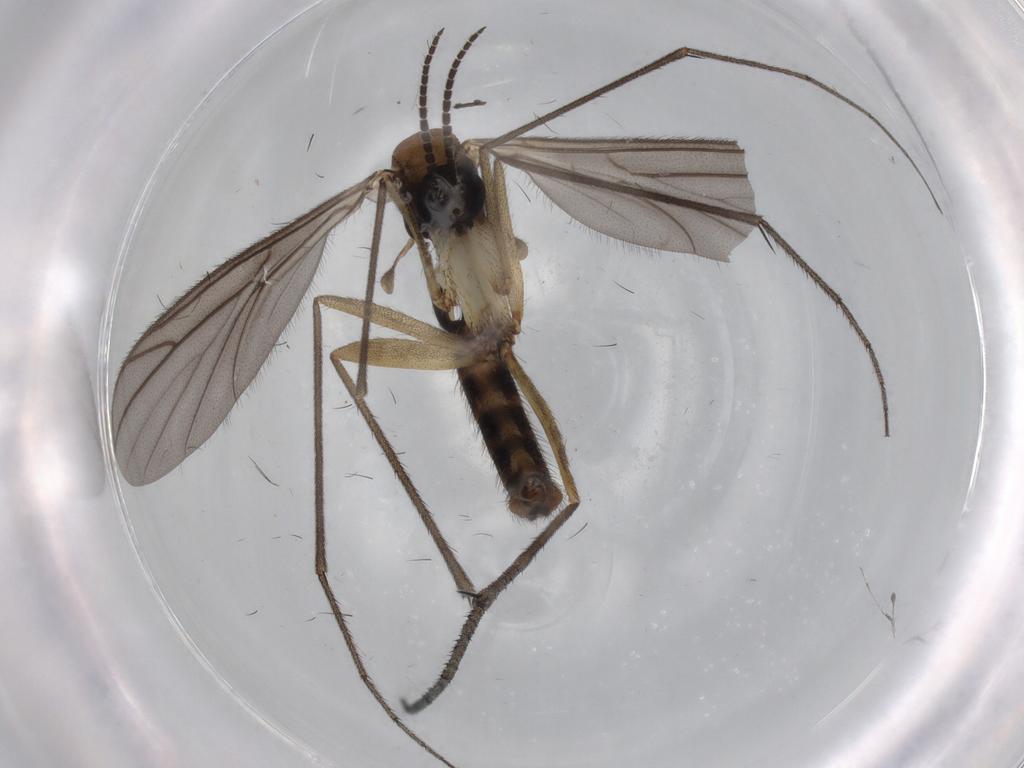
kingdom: Animalia
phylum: Arthropoda
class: Insecta
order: Diptera
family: Ditomyiidae
